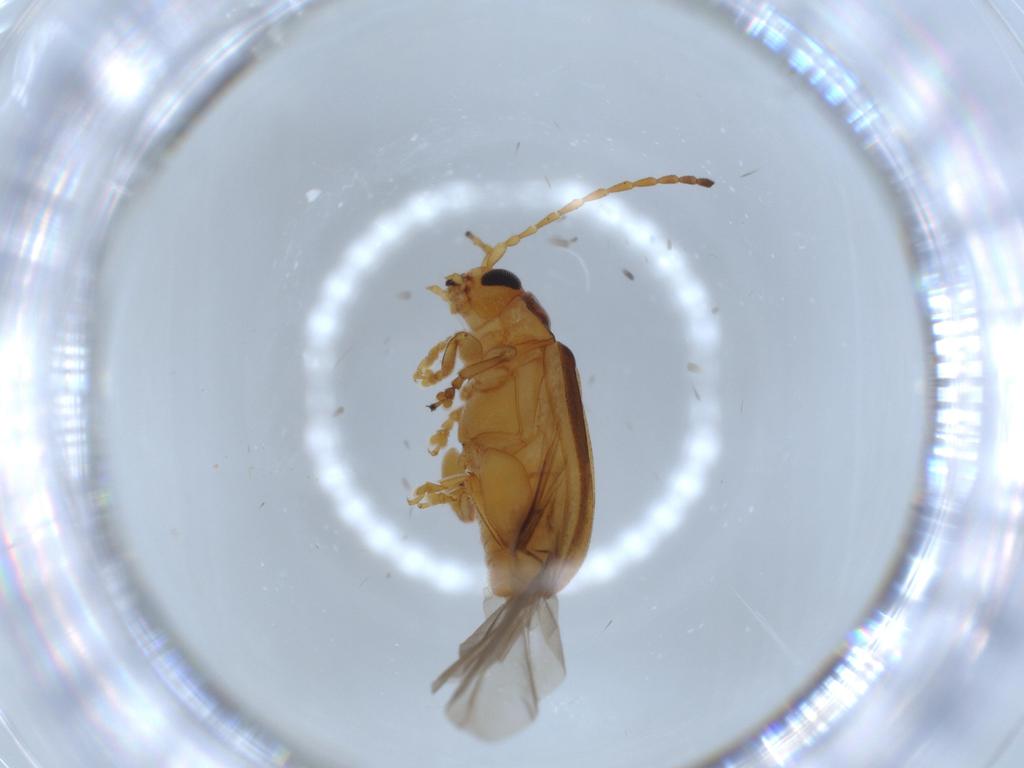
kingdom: Animalia
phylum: Arthropoda
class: Insecta
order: Coleoptera
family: Chrysomelidae
